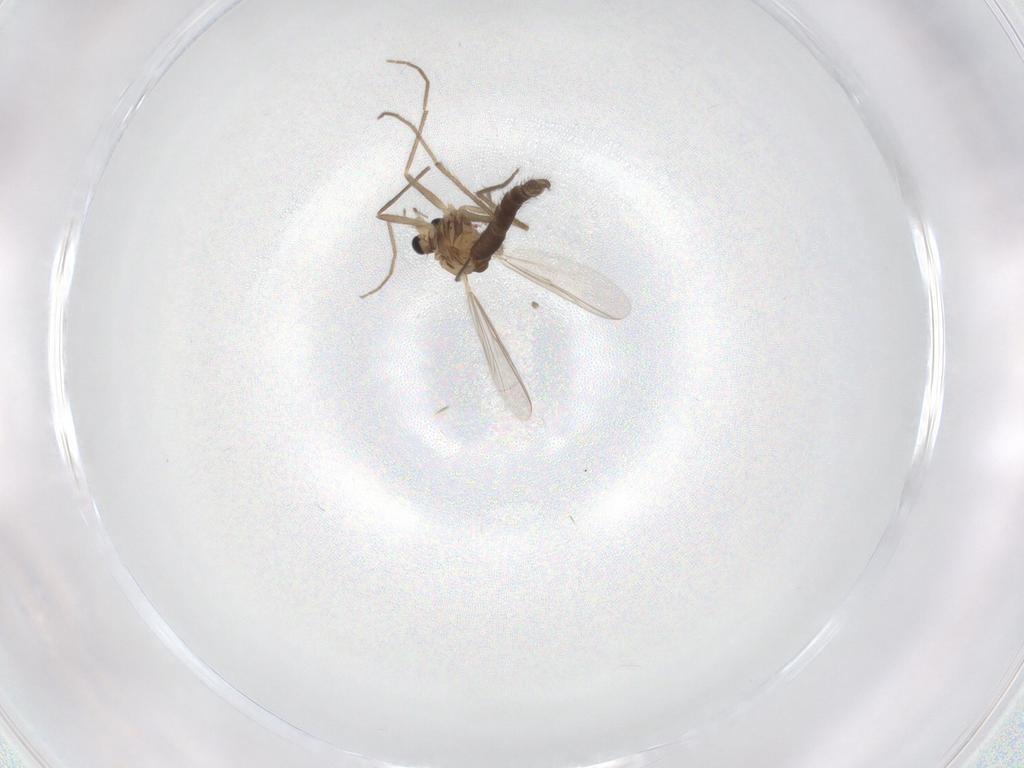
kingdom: Animalia
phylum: Arthropoda
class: Insecta
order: Diptera
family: Chironomidae
